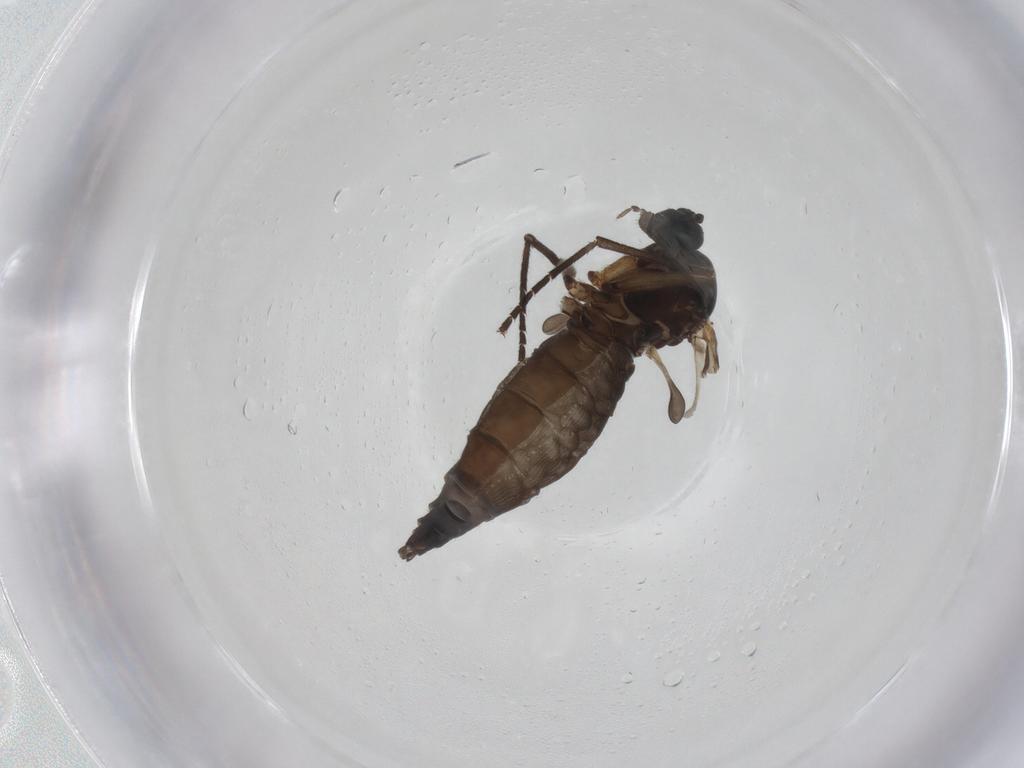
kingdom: Animalia
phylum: Arthropoda
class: Insecta
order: Diptera
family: Sciaridae
